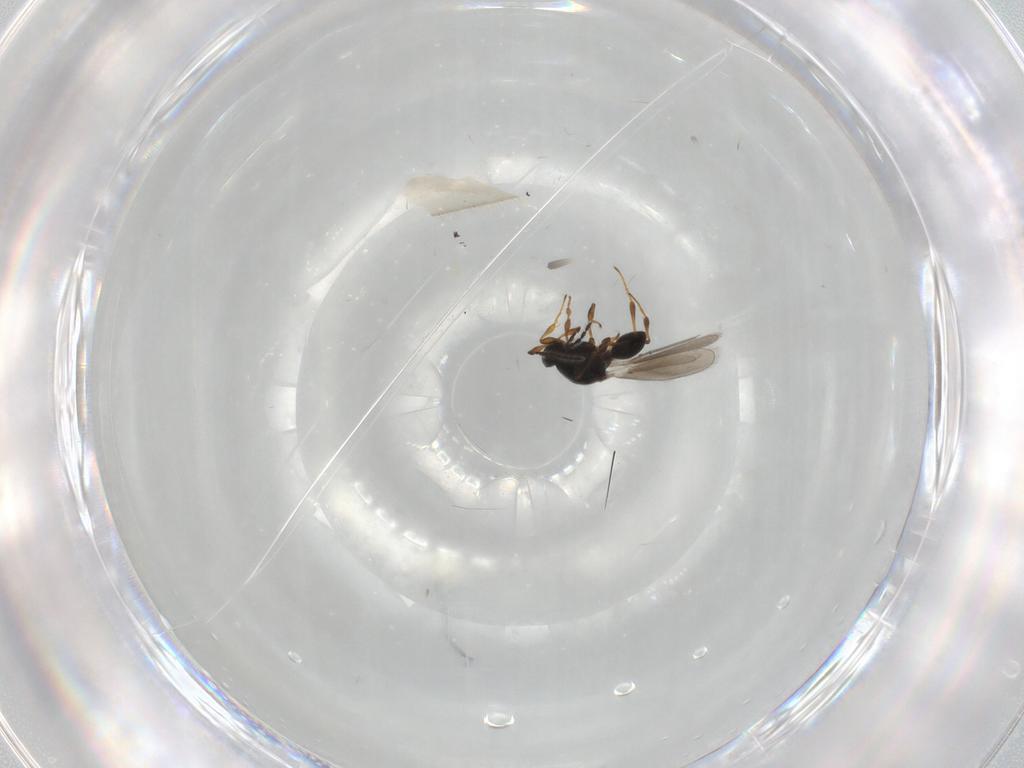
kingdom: Animalia
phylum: Arthropoda
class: Insecta
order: Hymenoptera
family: Platygastridae
